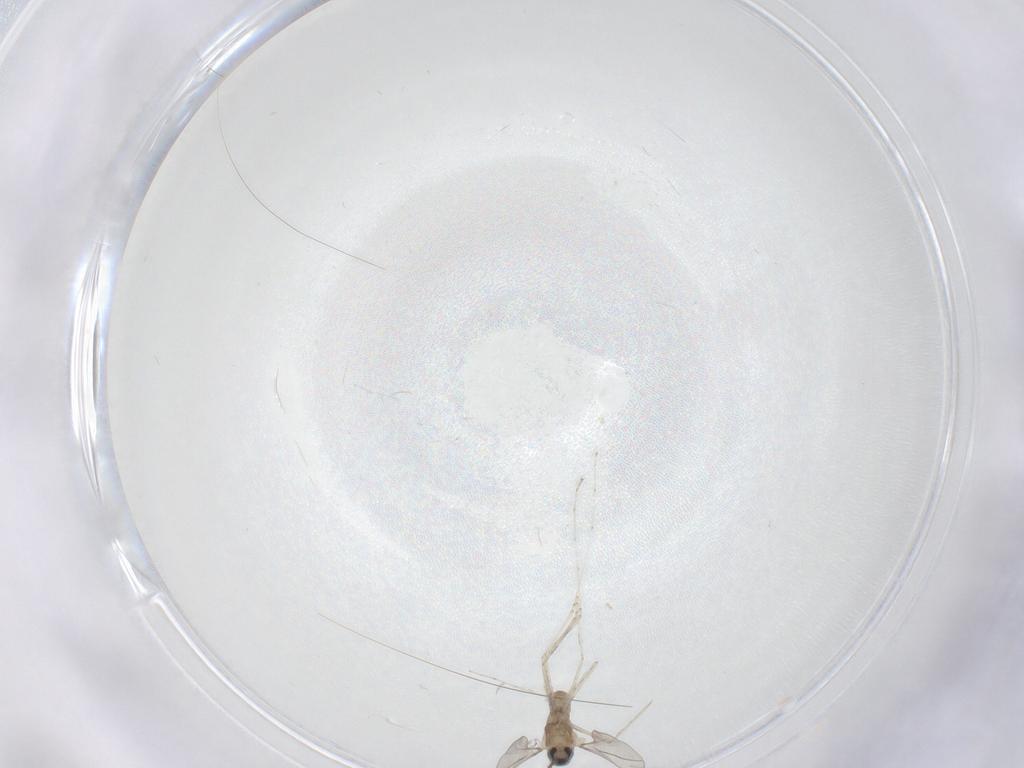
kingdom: Animalia
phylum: Arthropoda
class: Insecta
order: Diptera
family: Cecidomyiidae
